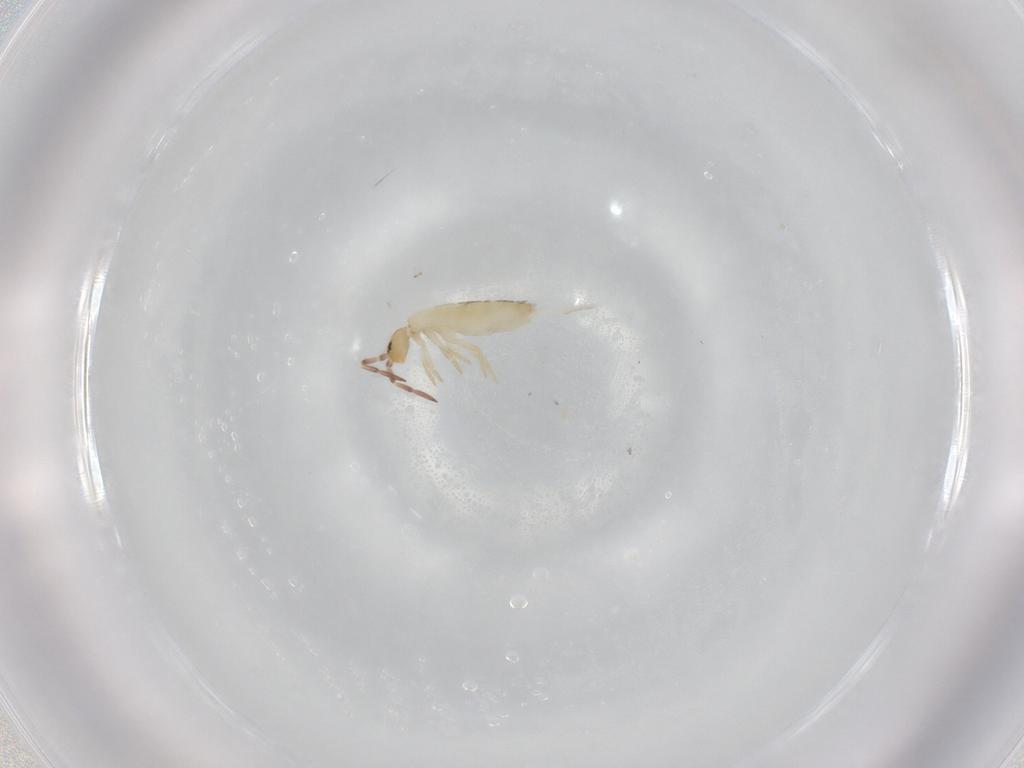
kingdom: Animalia
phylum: Arthropoda
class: Collembola
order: Entomobryomorpha
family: Entomobryidae
